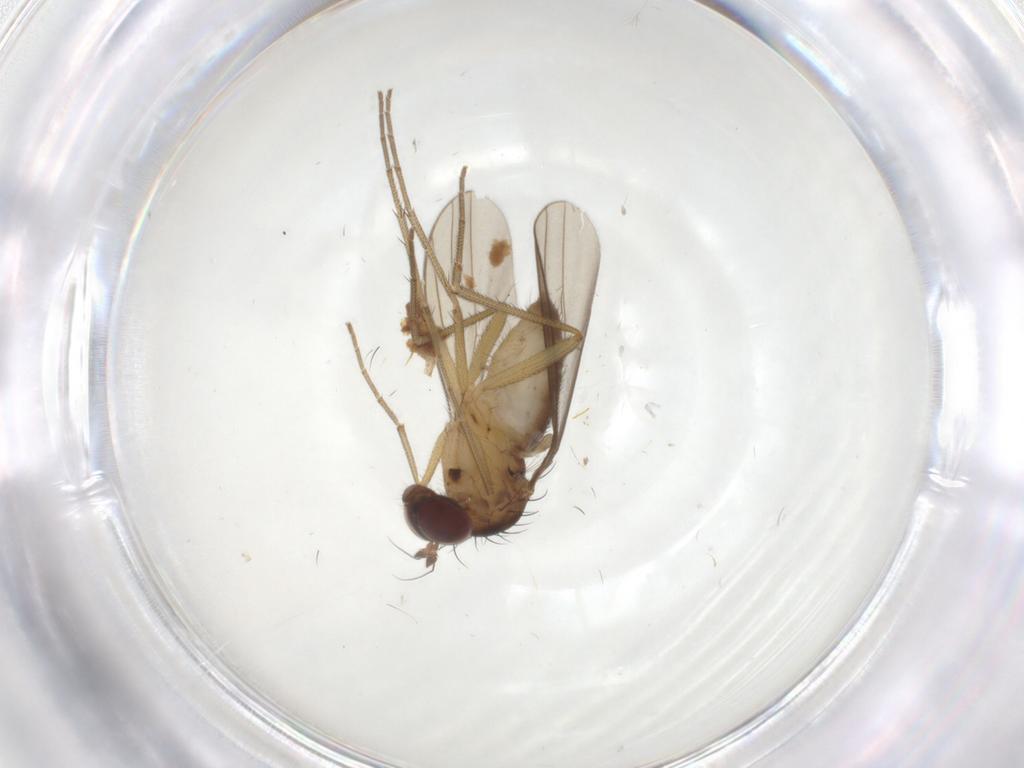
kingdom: Animalia
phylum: Arthropoda
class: Insecta
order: Diptera
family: Dolichopodidae
